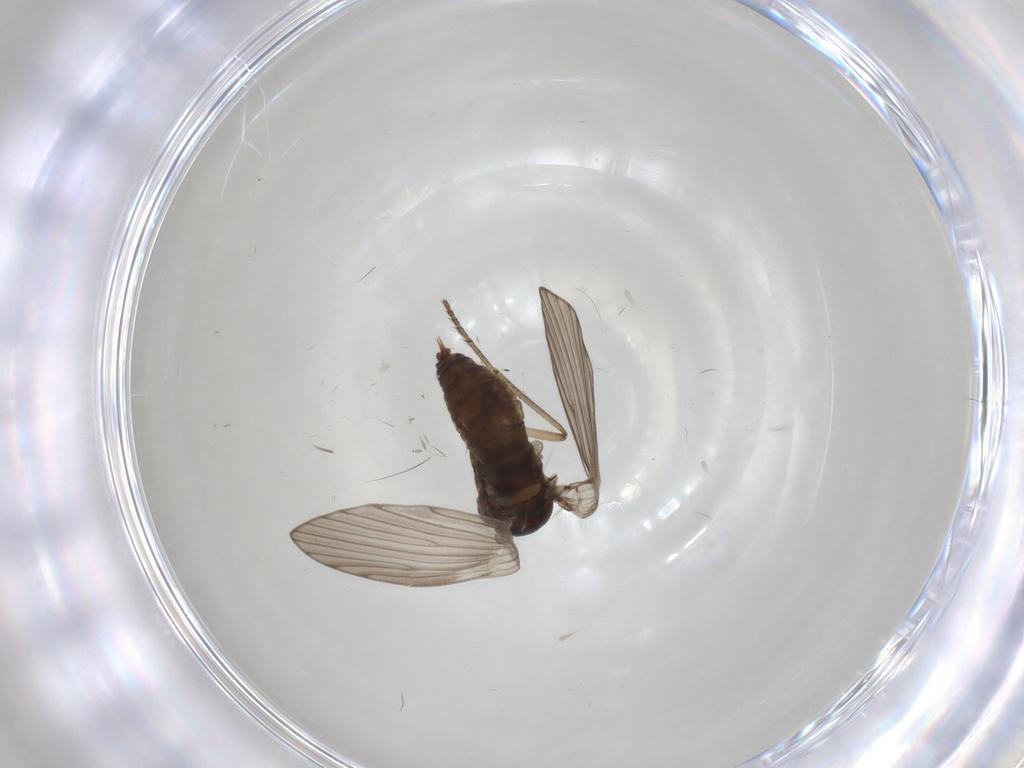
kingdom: Animalia
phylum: Arthropoda
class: Insecta
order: Diptera
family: Psychodidae
